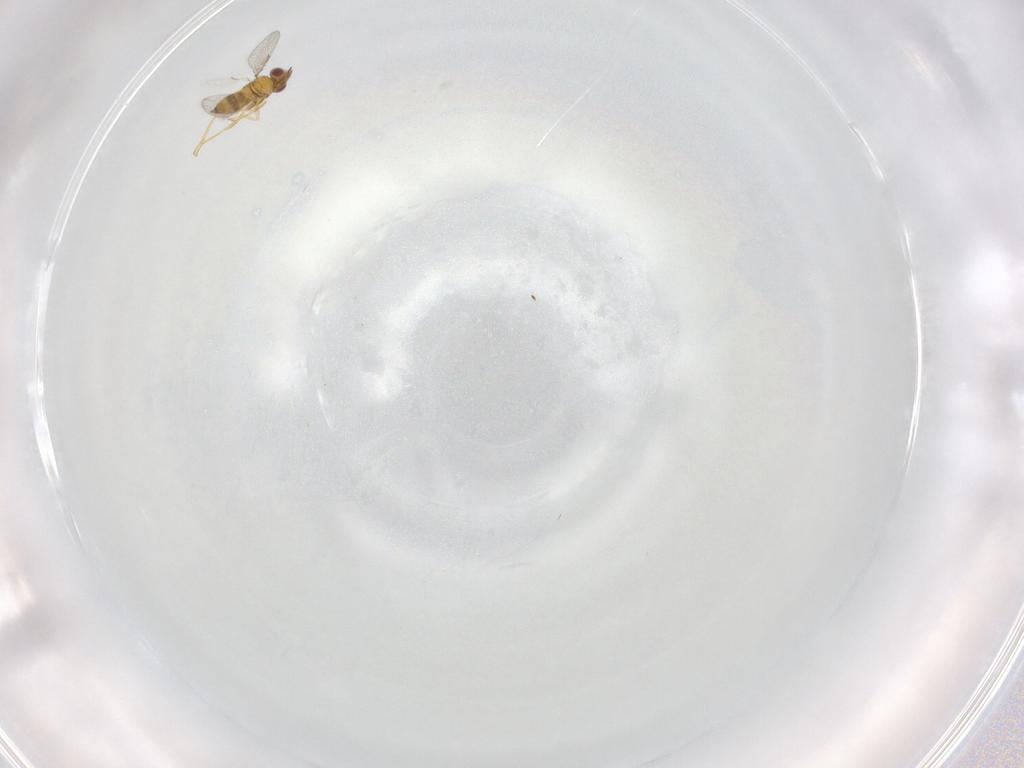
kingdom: Animalia
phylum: Arthropoda
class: Insecta
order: Hymenoptera
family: Trichogrammatidae
